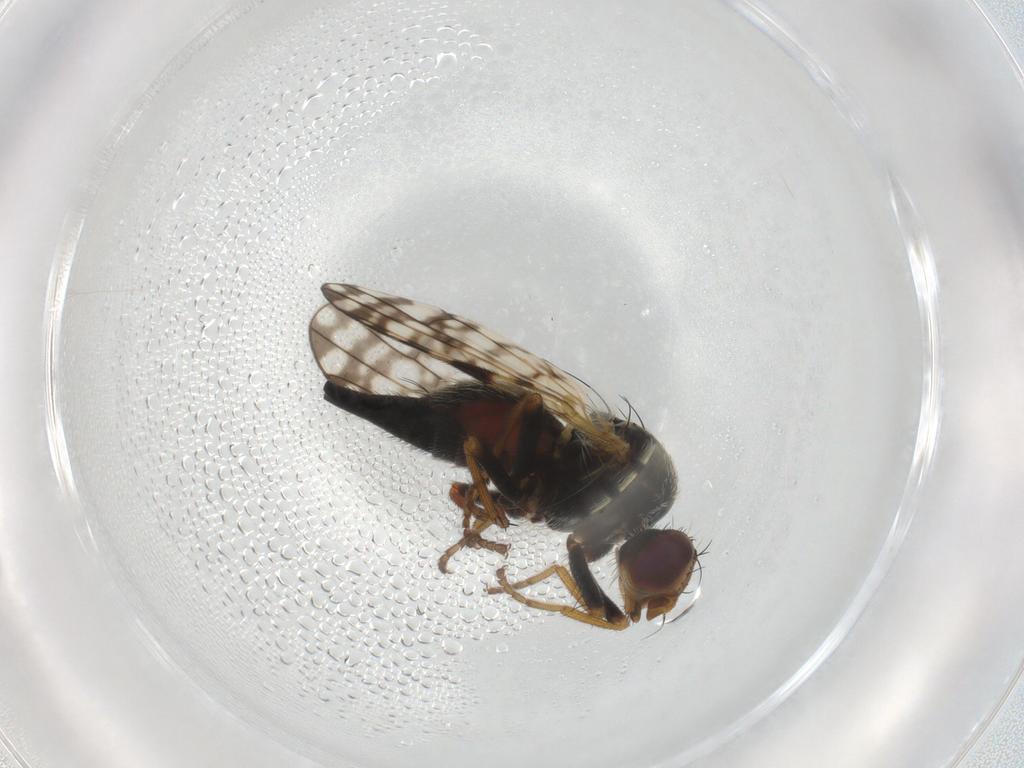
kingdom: Animalia
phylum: Arthropoda
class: Insecta
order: Diptera
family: Tephritidae
